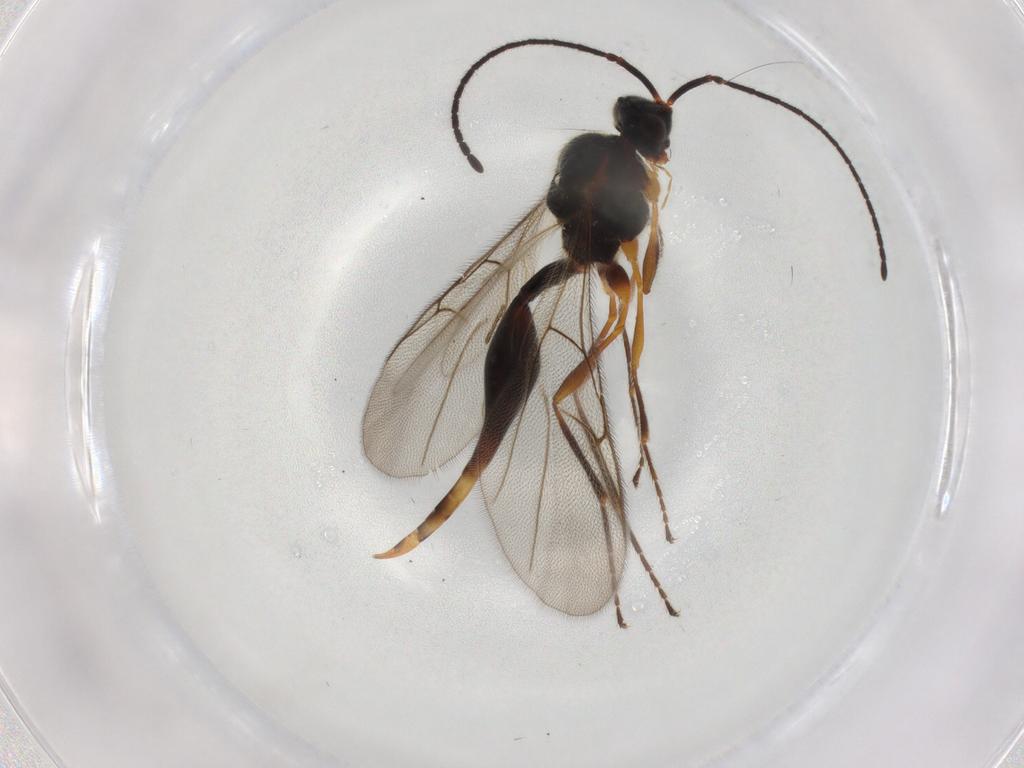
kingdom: Animalia
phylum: Arthropoda
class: Insecta
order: Hymenoptera
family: Figitidae
